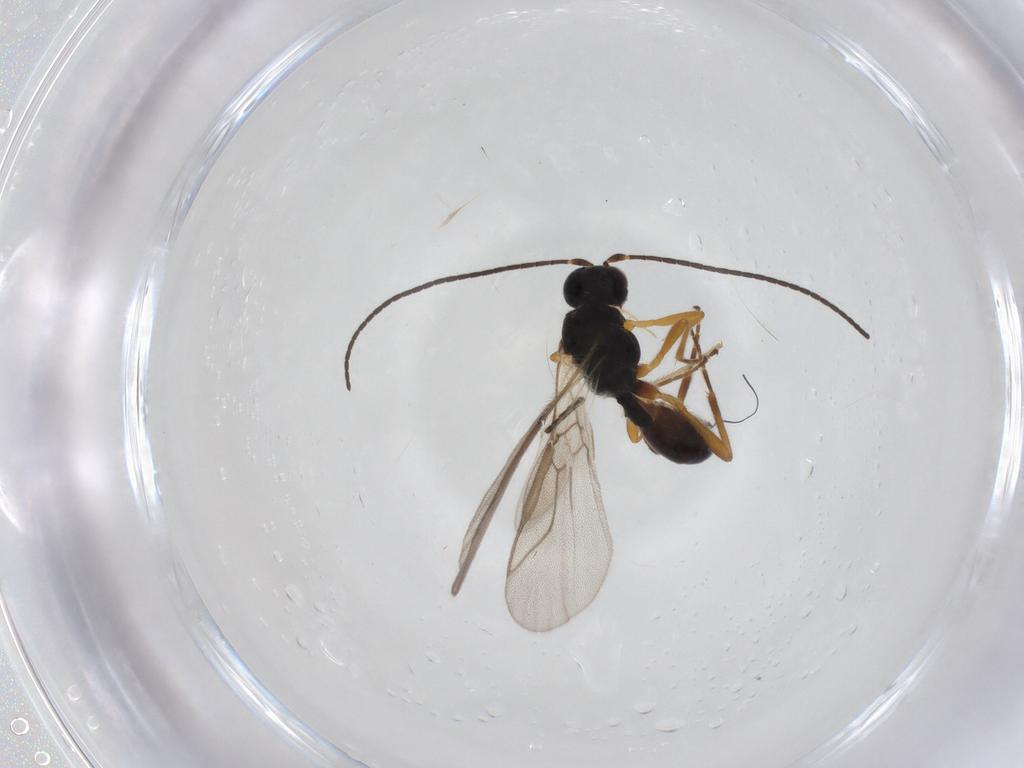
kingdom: Animalia
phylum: Arthropoda
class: Insecta
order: Hymenoptera
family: Braconidae
